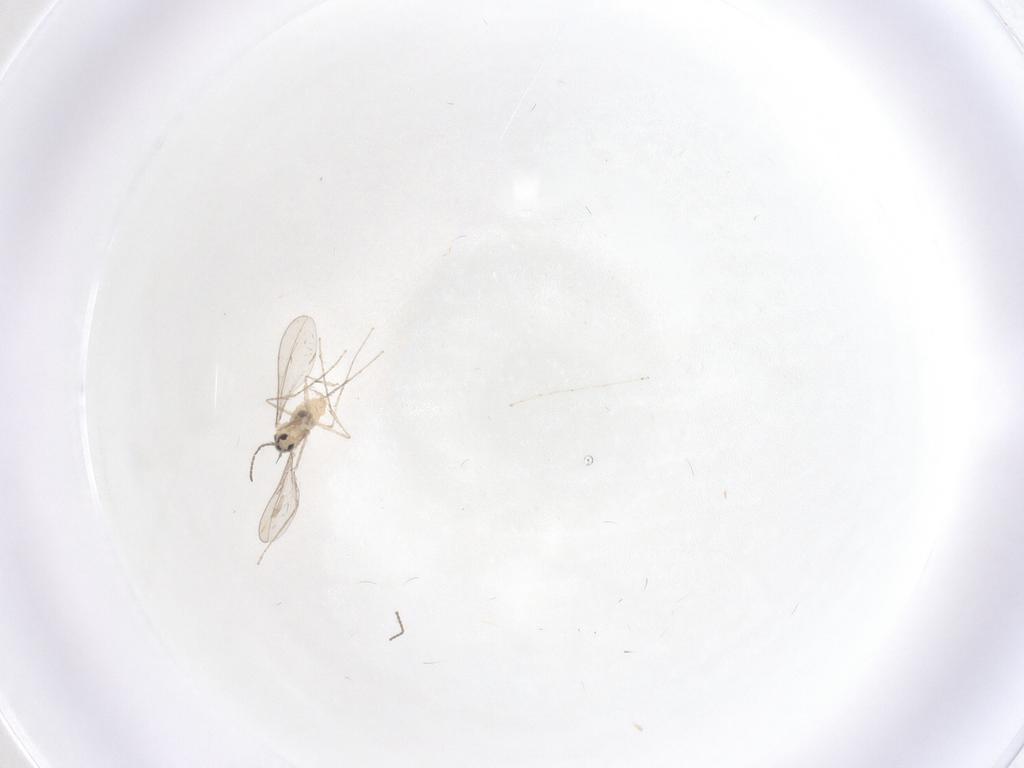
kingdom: Animalia
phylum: Arthropoda
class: Insecta
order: Diptera
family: Cecidomyiidae
